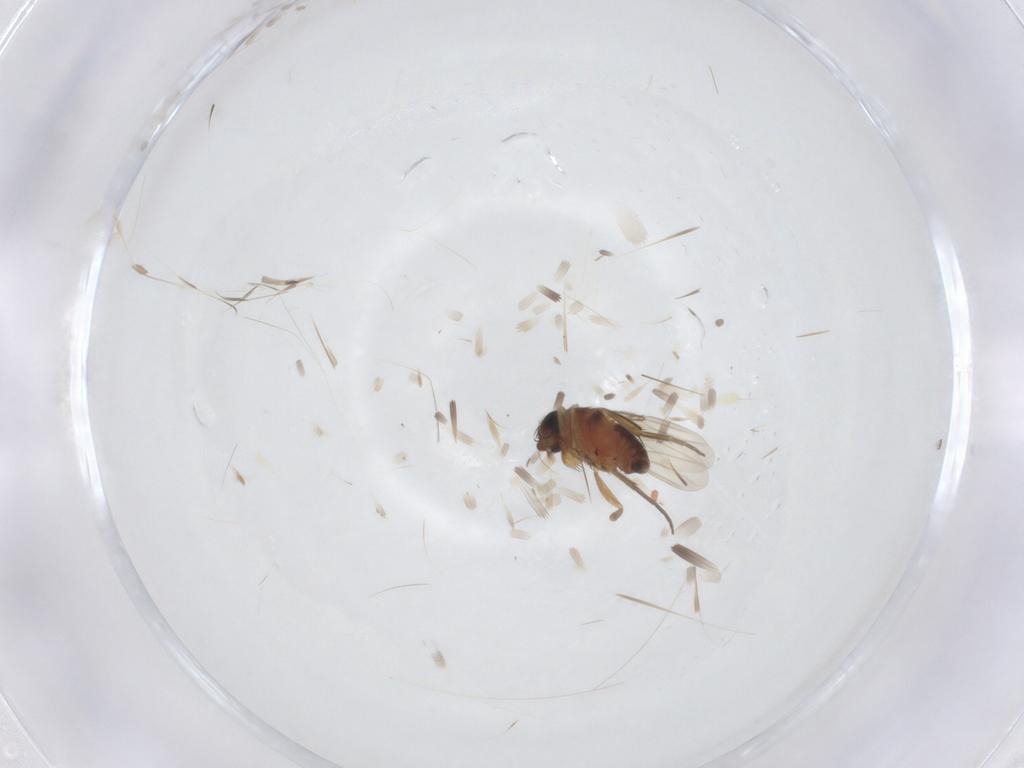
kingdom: Animalia
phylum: Arthropoda
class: Insecta
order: Diptera
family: Phoridae
